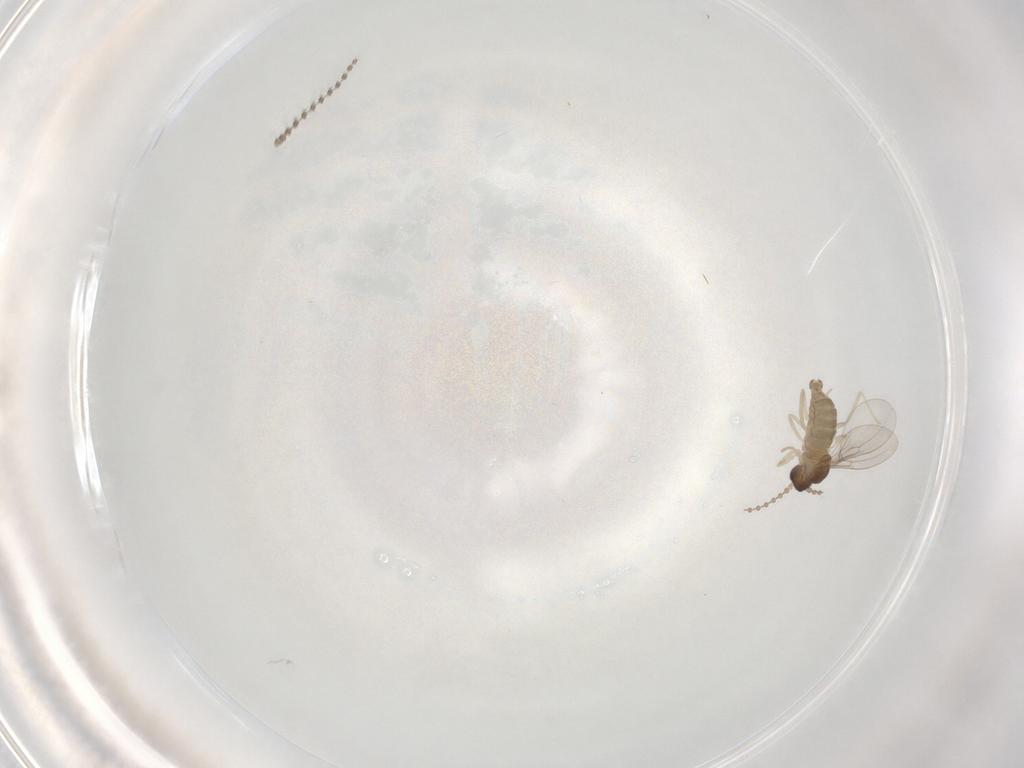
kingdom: Animalia
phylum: Arthropoda
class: Insecta
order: Diptera
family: Cecidomyiidae
